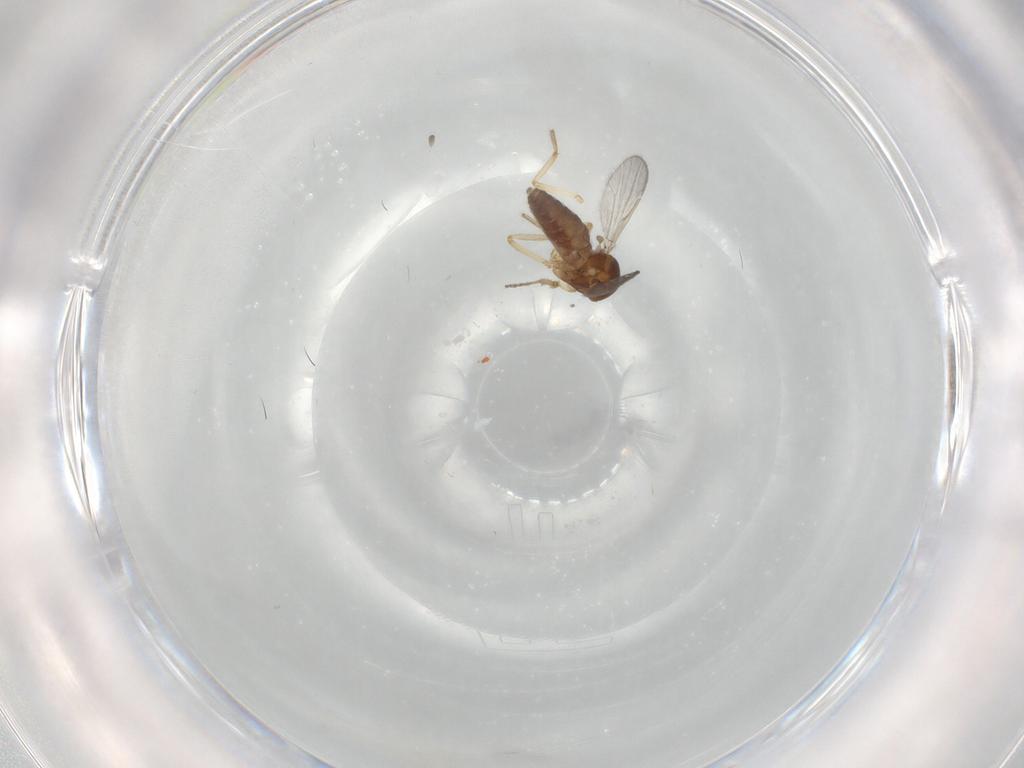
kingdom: Animalia
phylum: Arthropoda
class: Insecta
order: Diptera
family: Ceratopogonidae
